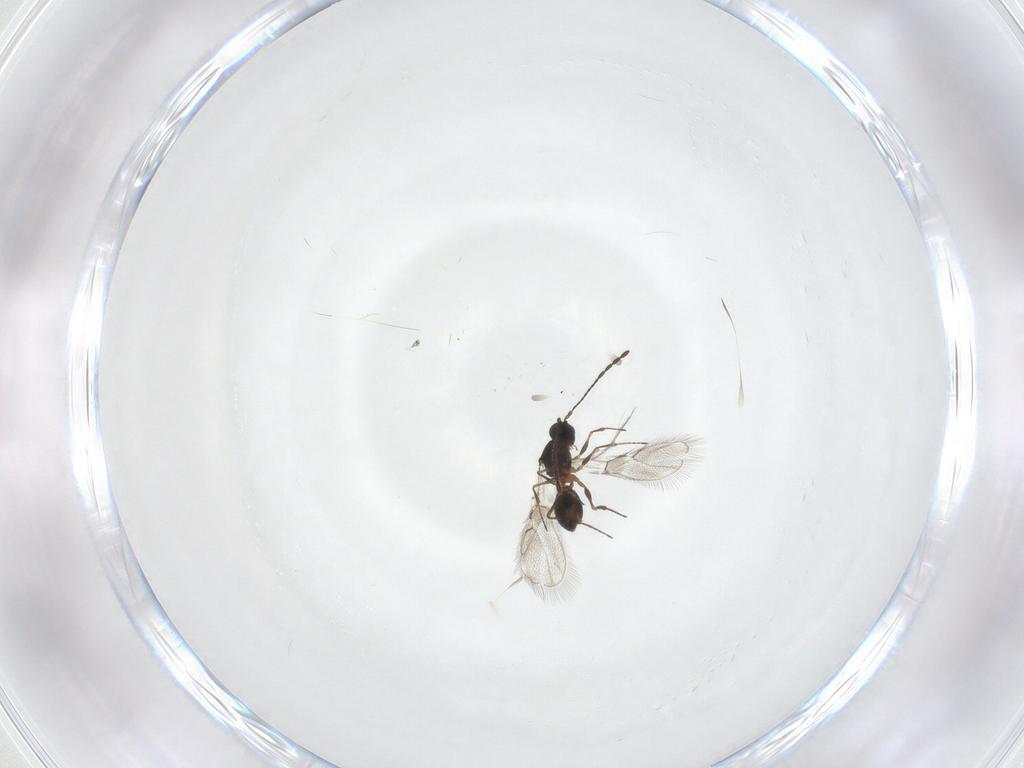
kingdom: Animalia
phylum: Arthropoda
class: Insecta
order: Hymenoptera
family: Figitidae
